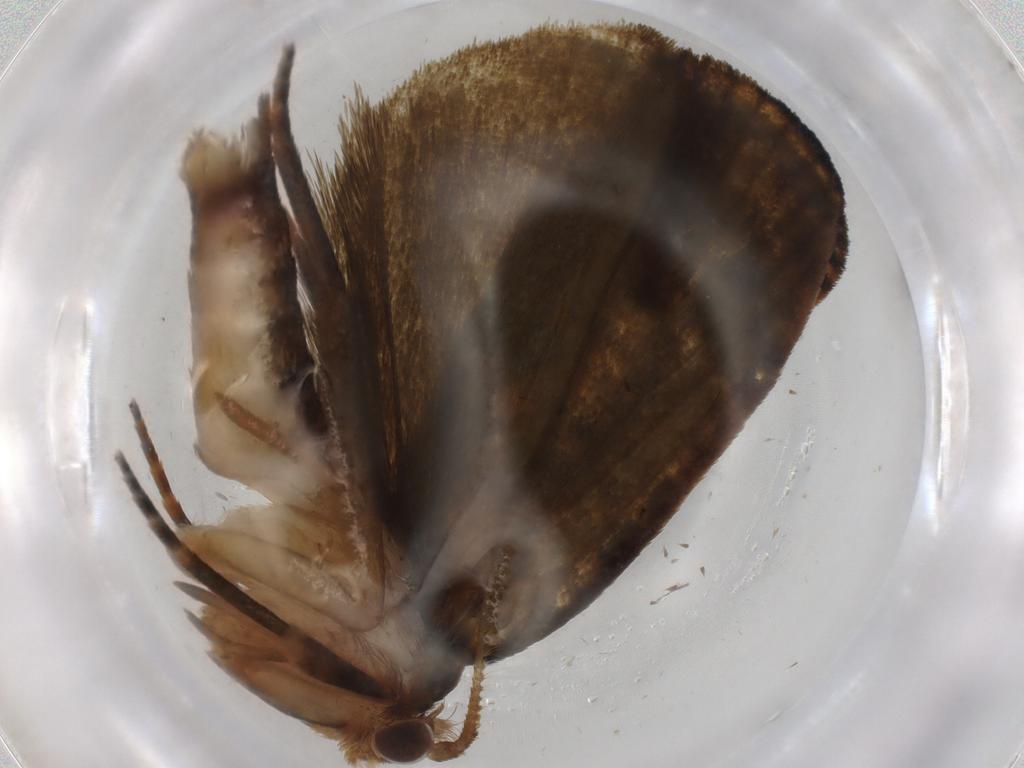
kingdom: Animalia
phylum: Arthropoda
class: Insecta
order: Lepidoptera
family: Geometridae
